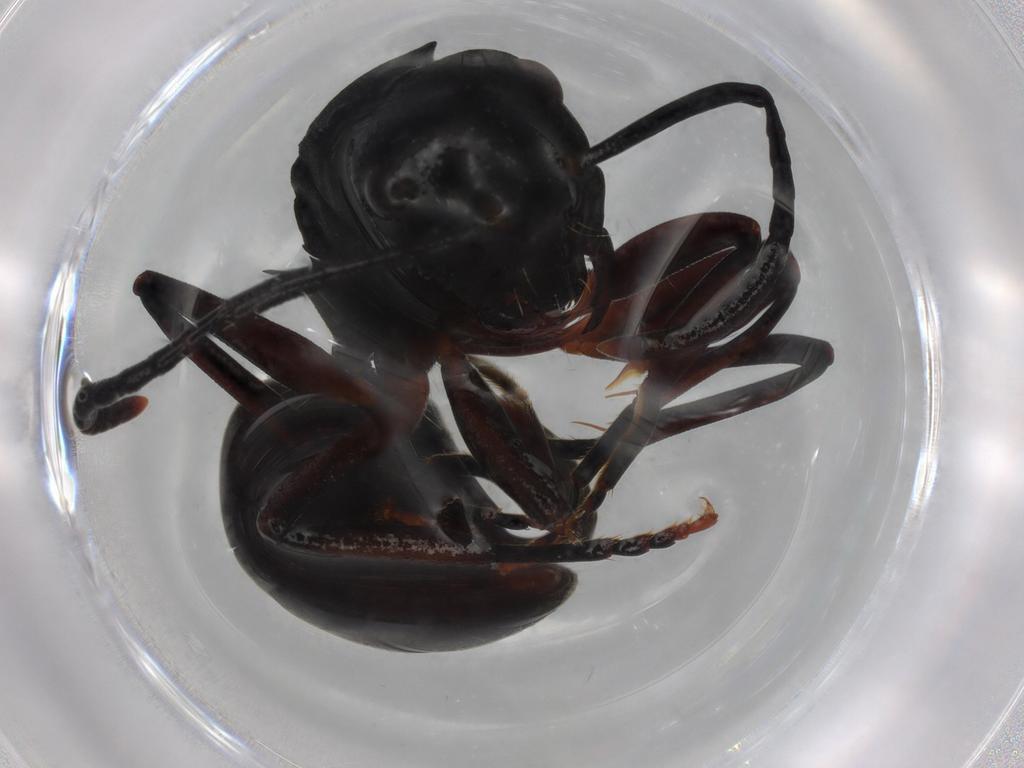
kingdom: Animalia
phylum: Arthropoda
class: Insecta
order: Hymenoptera
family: Formicidae
